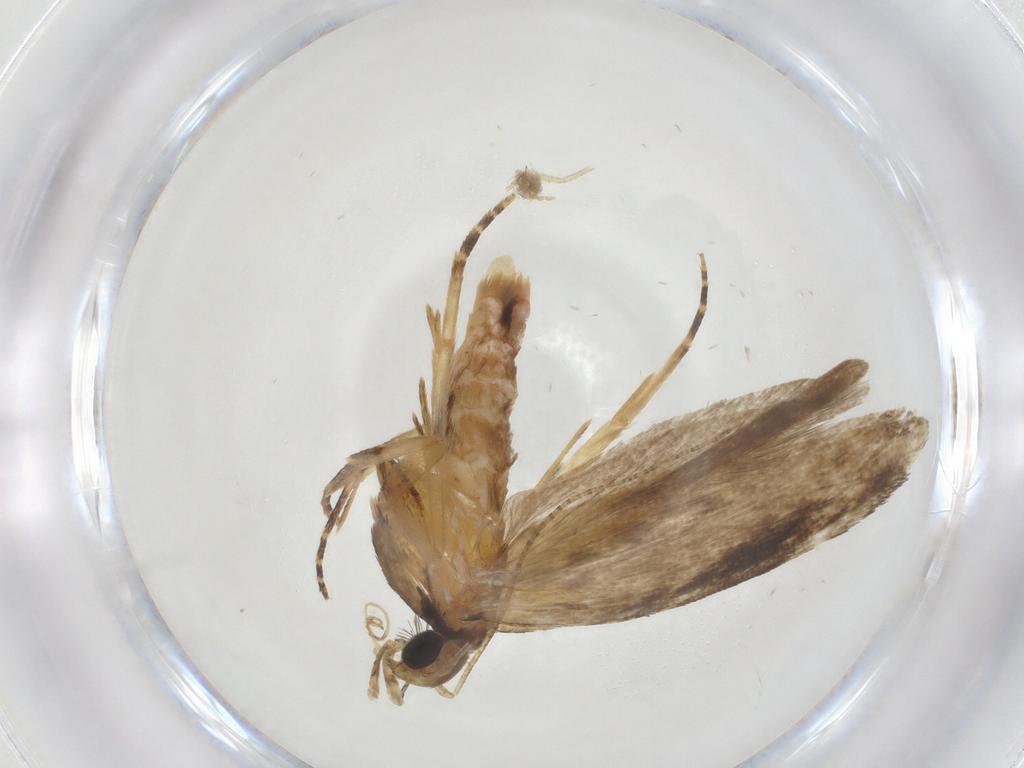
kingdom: Animalia
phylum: Arthropoda
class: Insecta
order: Lepidoptera
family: Gelechiidae
